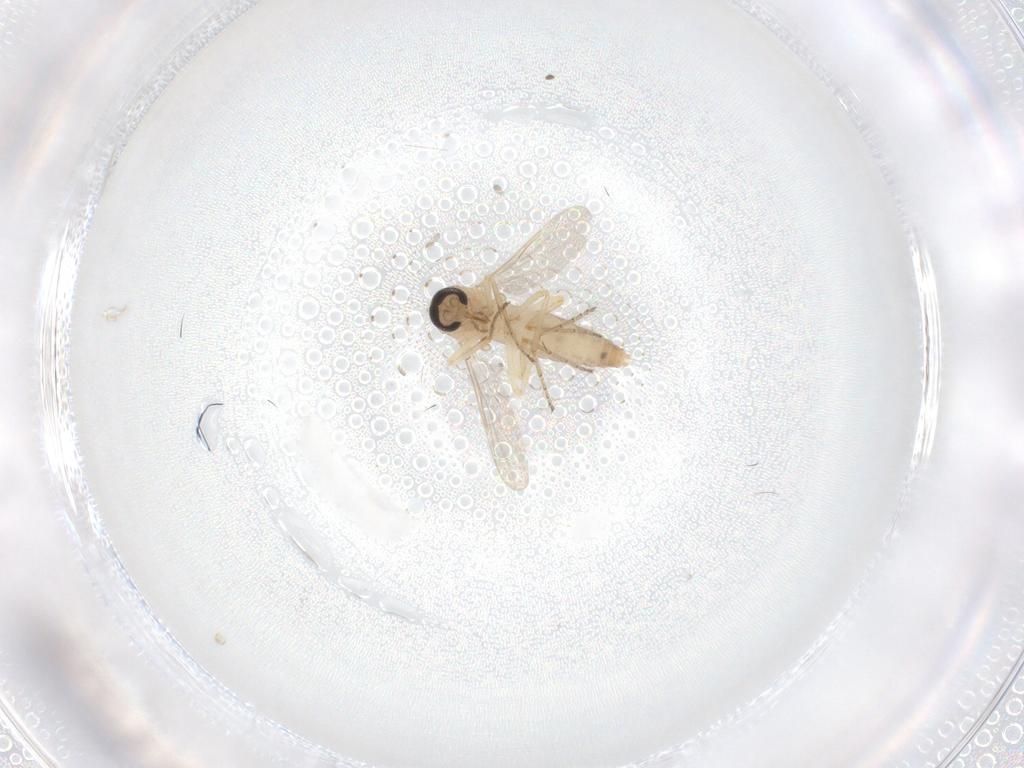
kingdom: Animalia
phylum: Arthropoda
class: Insecta
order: Diptera
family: Ceratopogonidae
